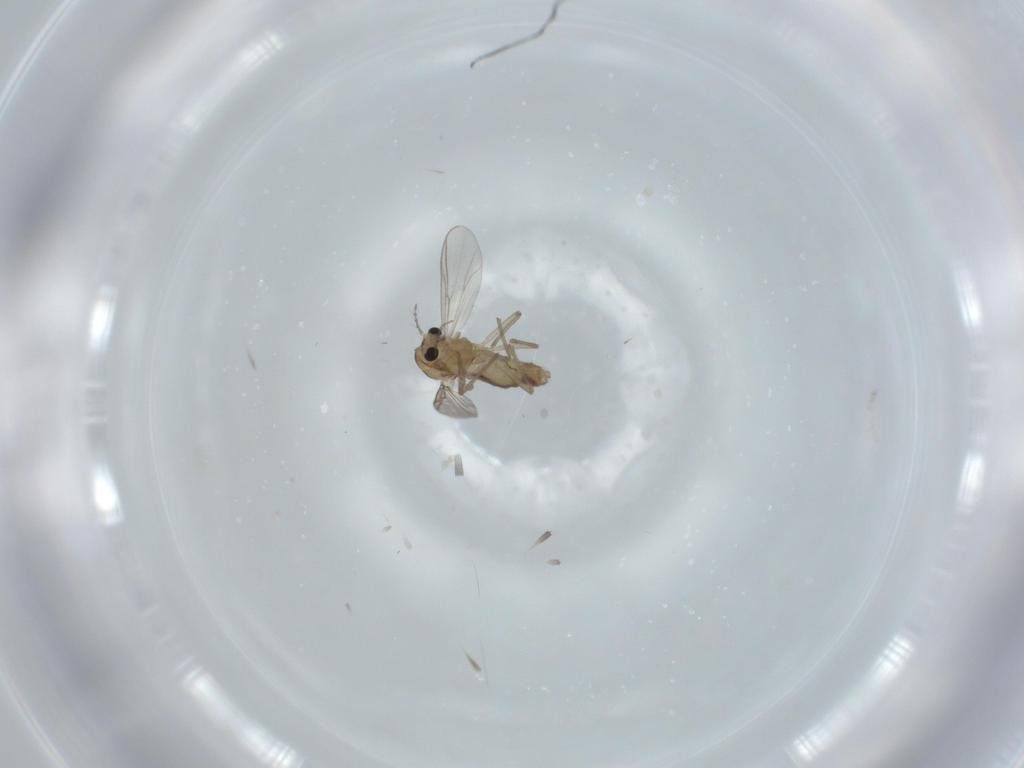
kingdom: Animalia
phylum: Arthropoda
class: Insecta
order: Diptera
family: Chironomidae
